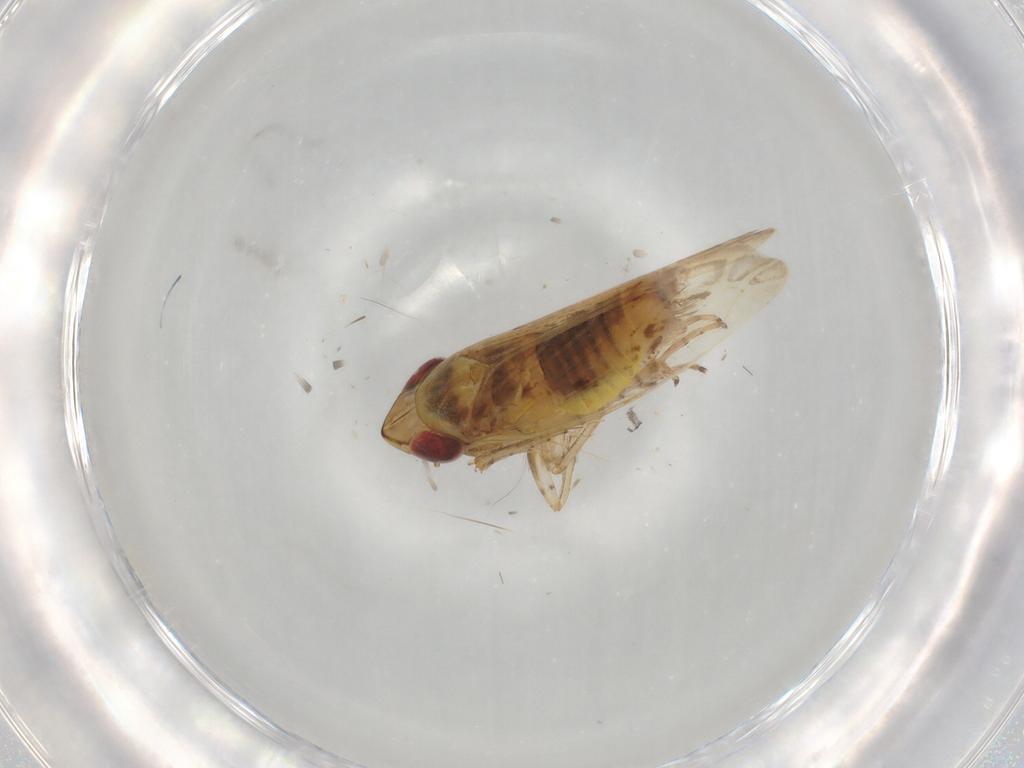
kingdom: Animalia
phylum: Arthropoda
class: Insecta
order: Hemiptera
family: Cicadellidae
